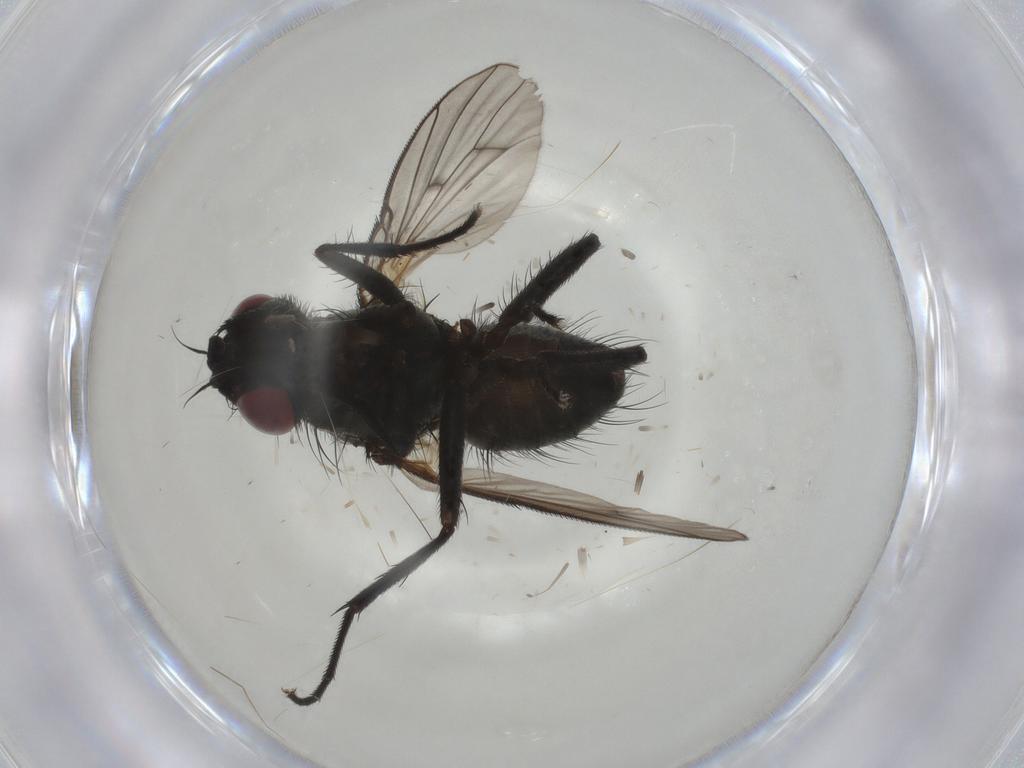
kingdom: Animalia
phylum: Arthropoda
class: Insecta
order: Diptera
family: Muscidae
